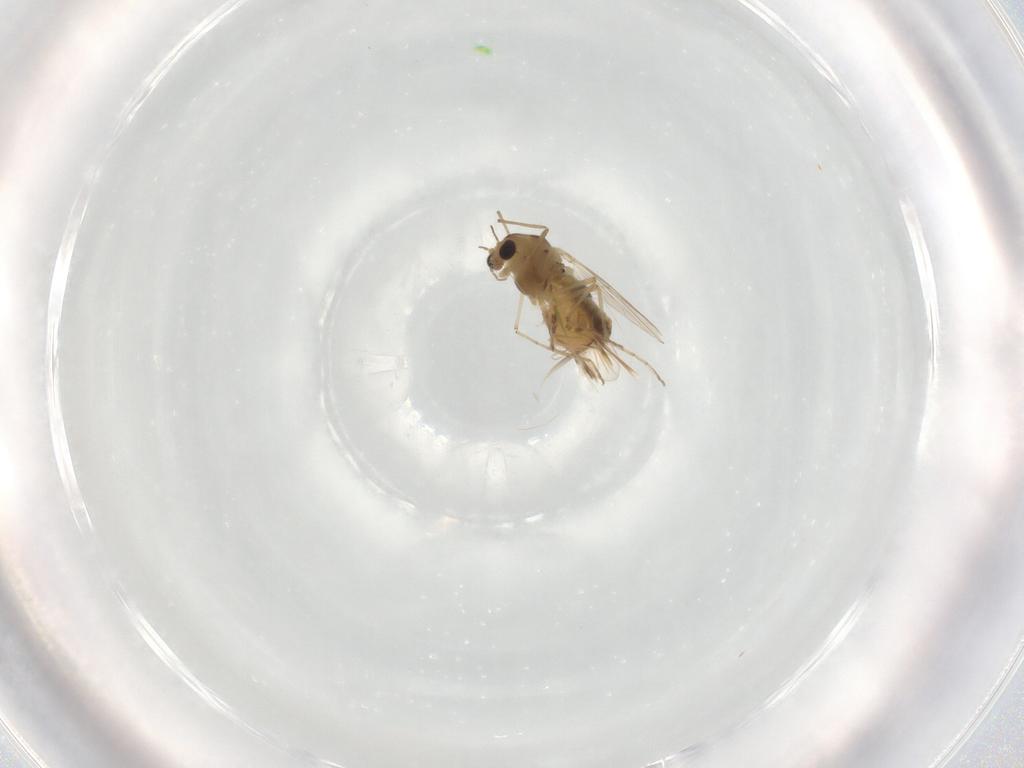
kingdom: Animalia
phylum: Arthropoda
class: Insecta
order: Diptera
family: Chironomidae
